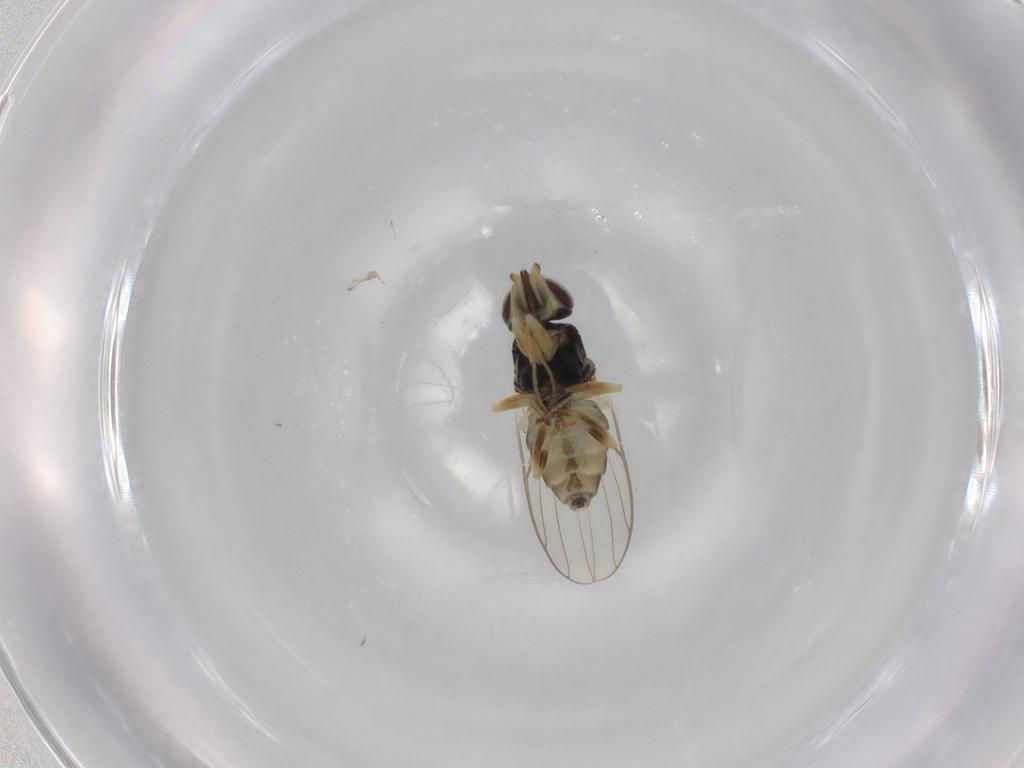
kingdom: Animalia
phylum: Arthropoda
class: Insecta
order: Diptera
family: Chloropidae
